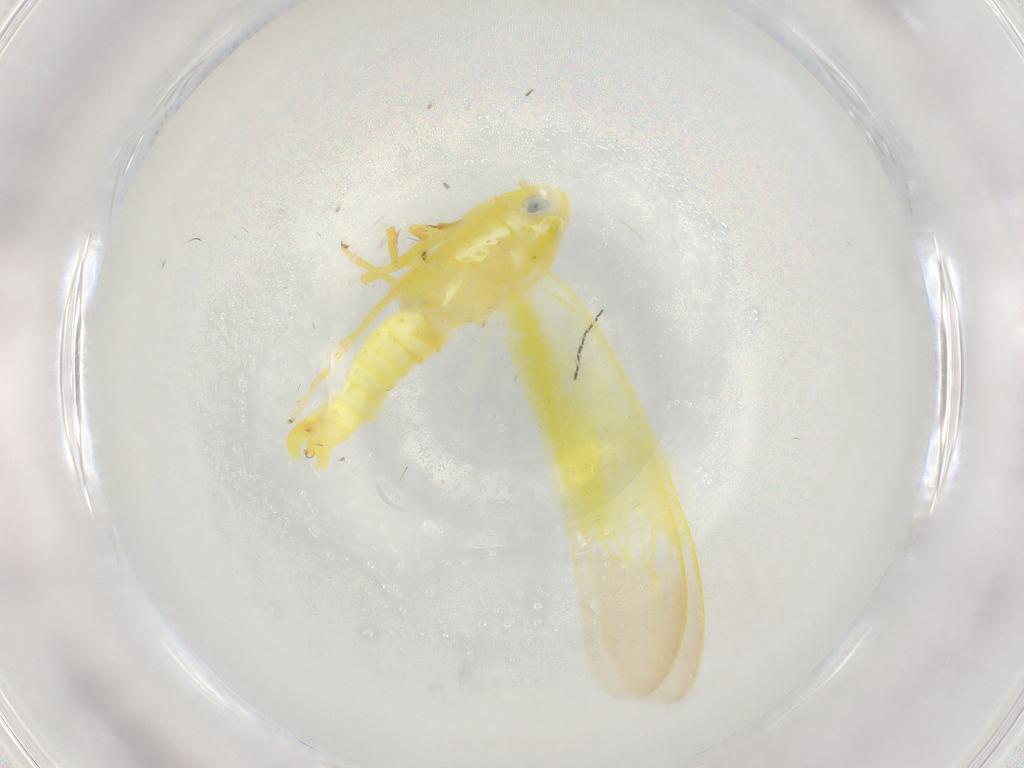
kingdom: Animalia
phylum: Arthropoda
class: Insecta
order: Hemiptera
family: Cicadellidae
